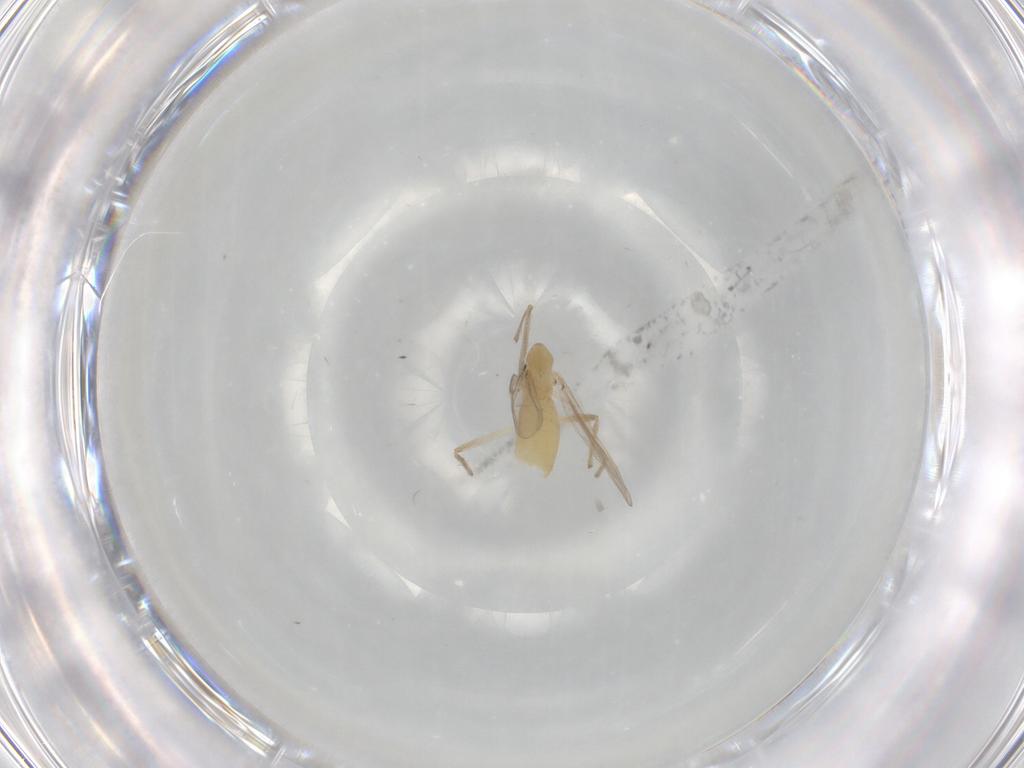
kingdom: Animalia
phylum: Arthropoda
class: Insecta
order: Diptera
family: Chironomidae
